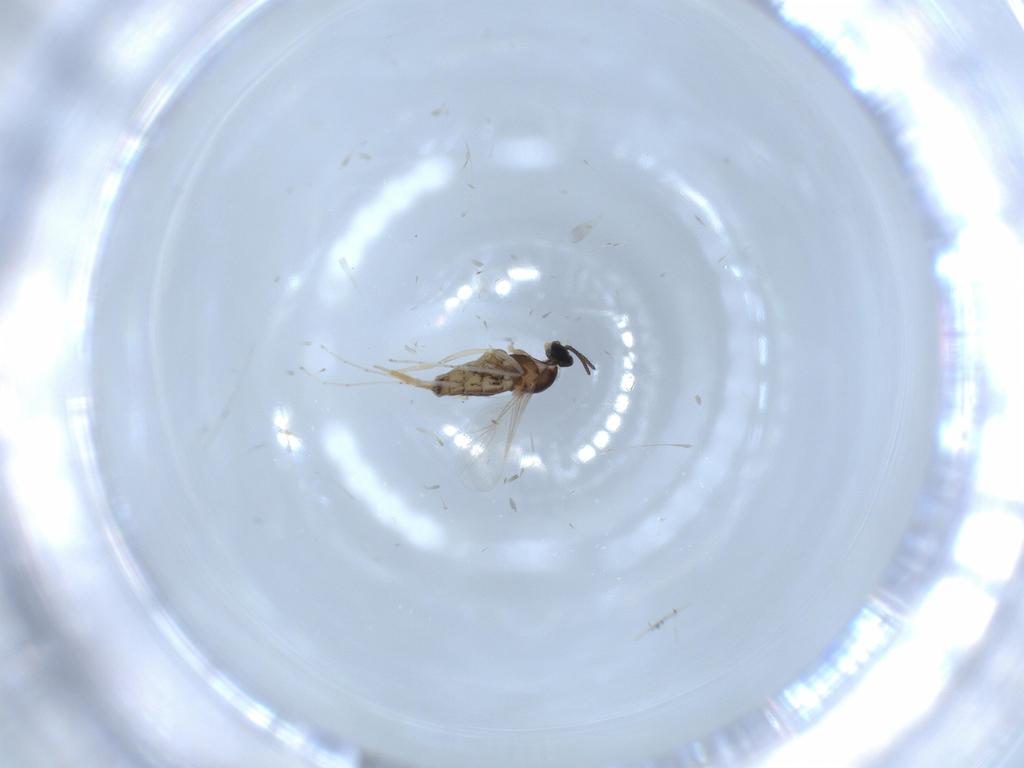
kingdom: Animalia
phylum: Arthropoda
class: Insecta
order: Diptera
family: Cecidomyiidae
